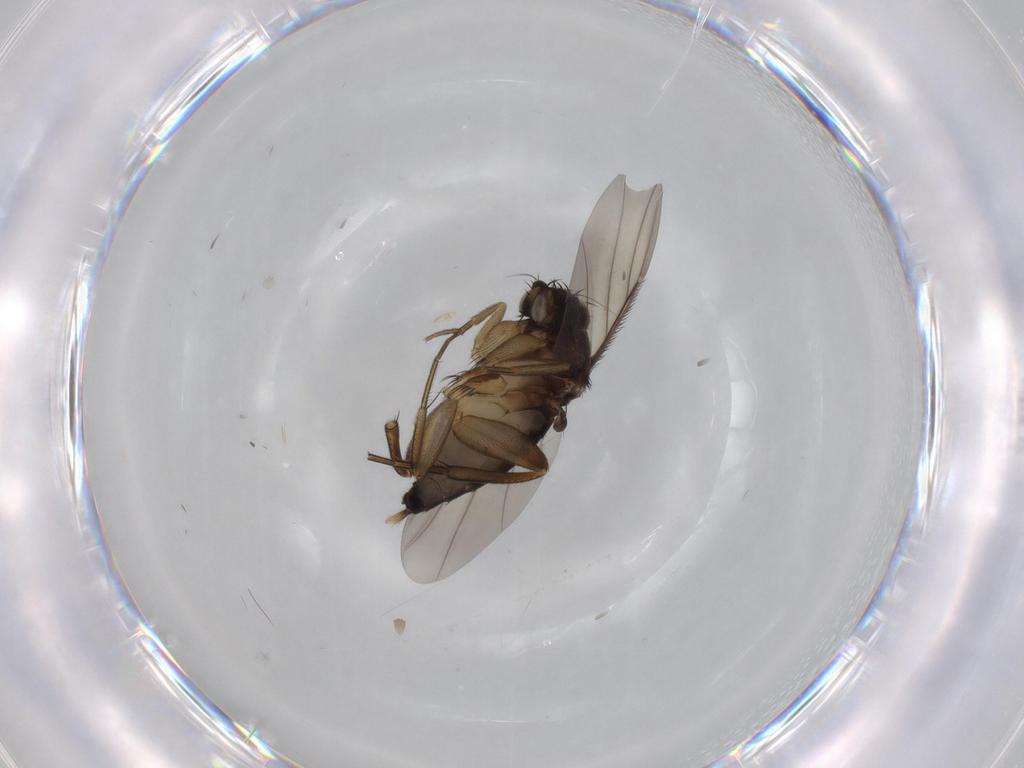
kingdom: Animalia
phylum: Arthropoda
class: Insecta
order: Diptera
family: Phoridae
